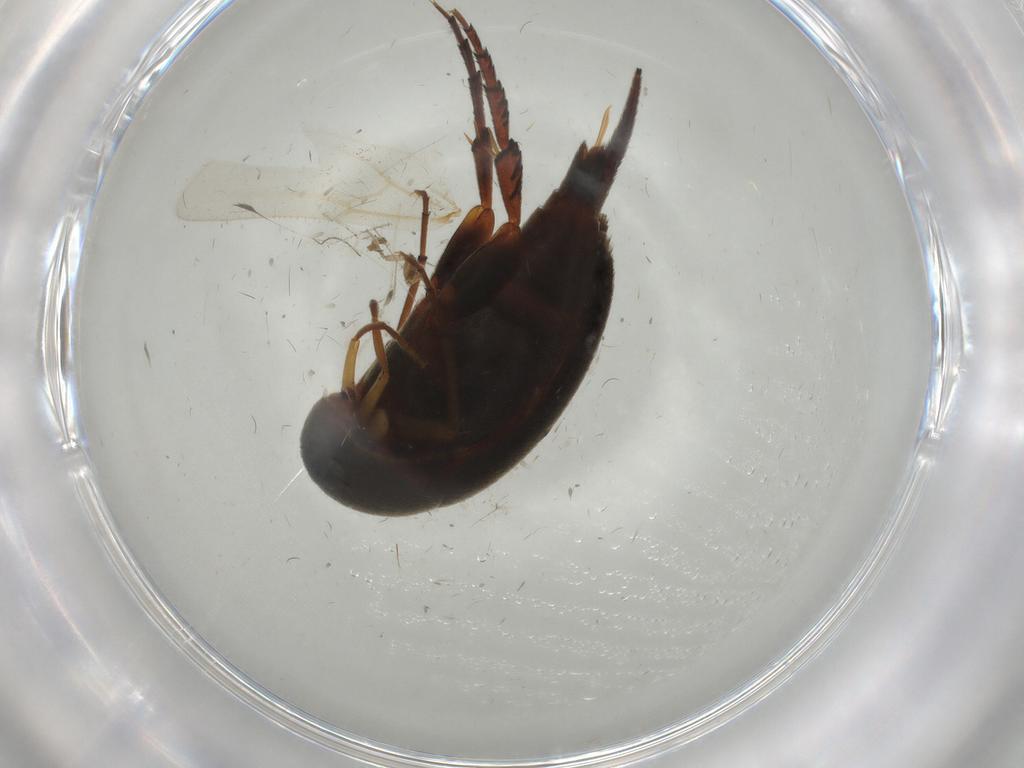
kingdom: Animalia
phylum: Arthropoda
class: Insecta
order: Coleoptera
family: Mordellidae
